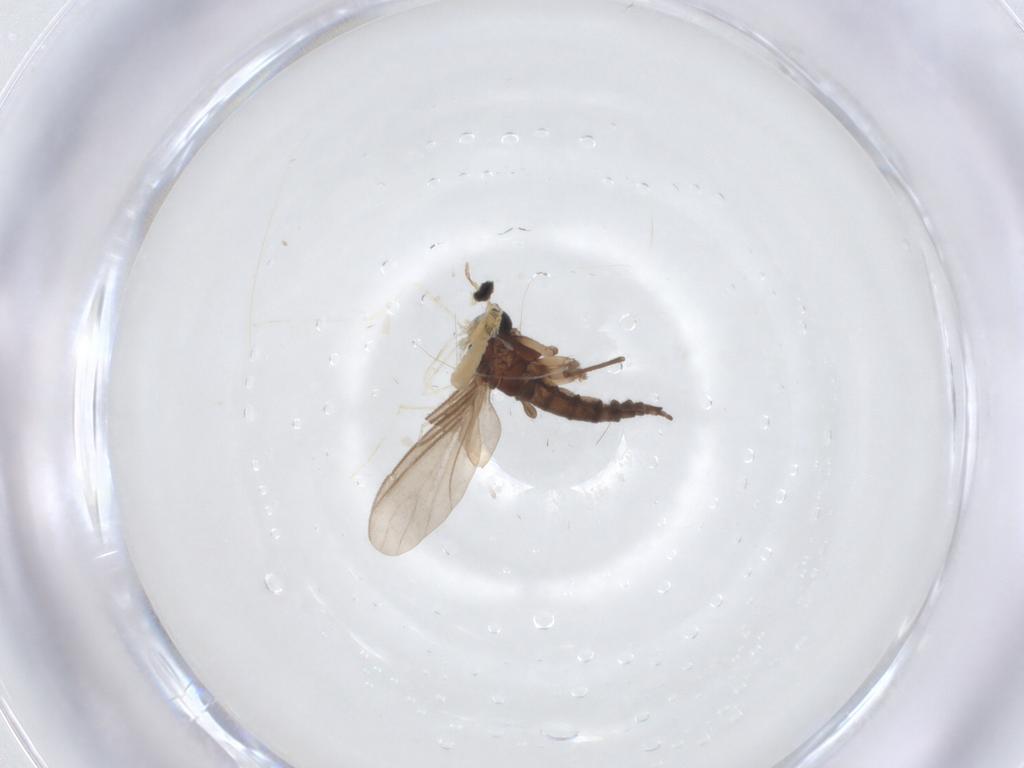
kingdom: Animalia
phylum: Arthropoda
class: Insecta
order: Diptera
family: Sciaridae
